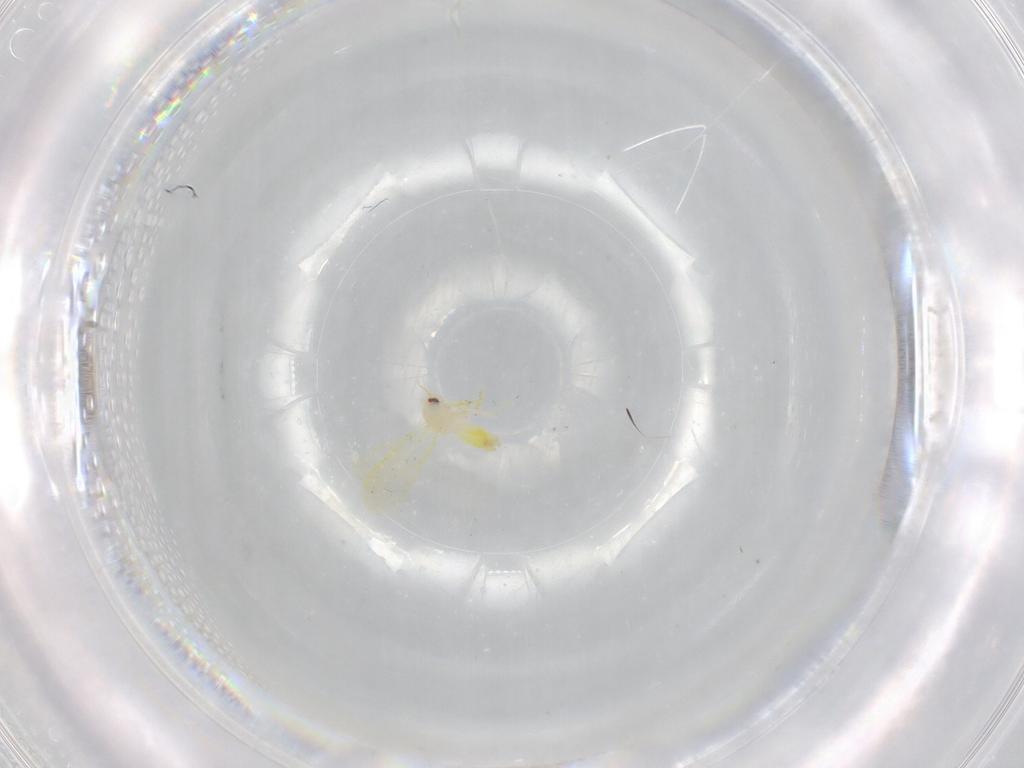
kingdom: Animalia
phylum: Arthropoda
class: Insecta
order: Hemiptera
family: Aleyrodidae
